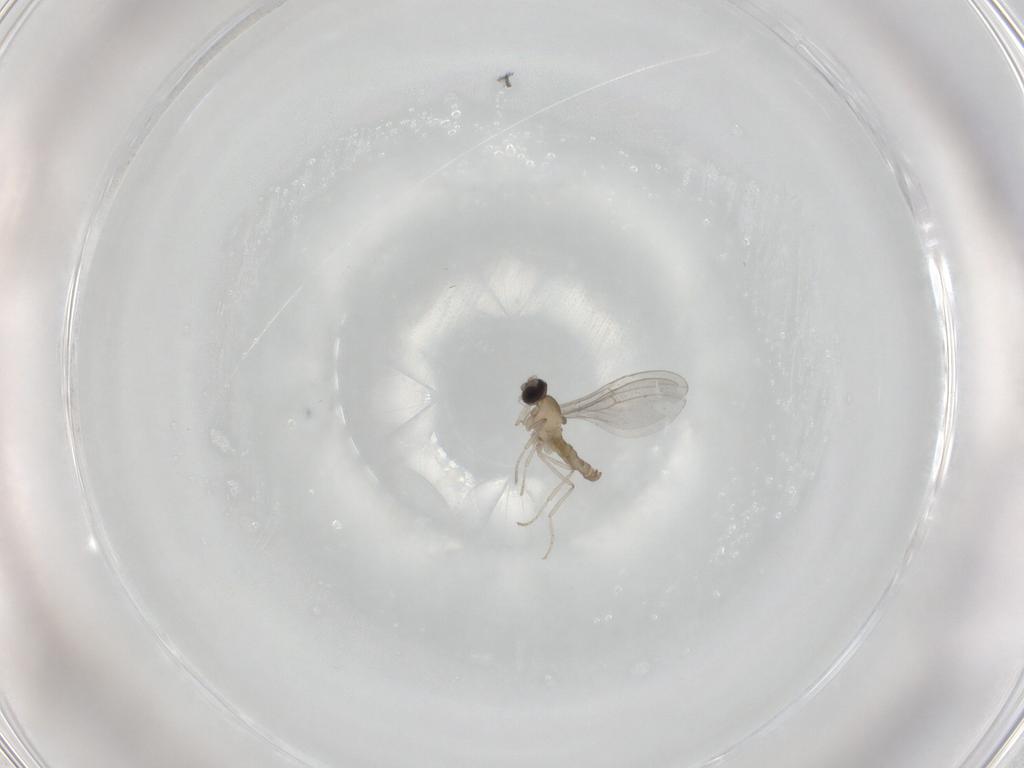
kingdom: Animalia
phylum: Arthropoda
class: Insecta
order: Diptera
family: Cecidomyiidae
